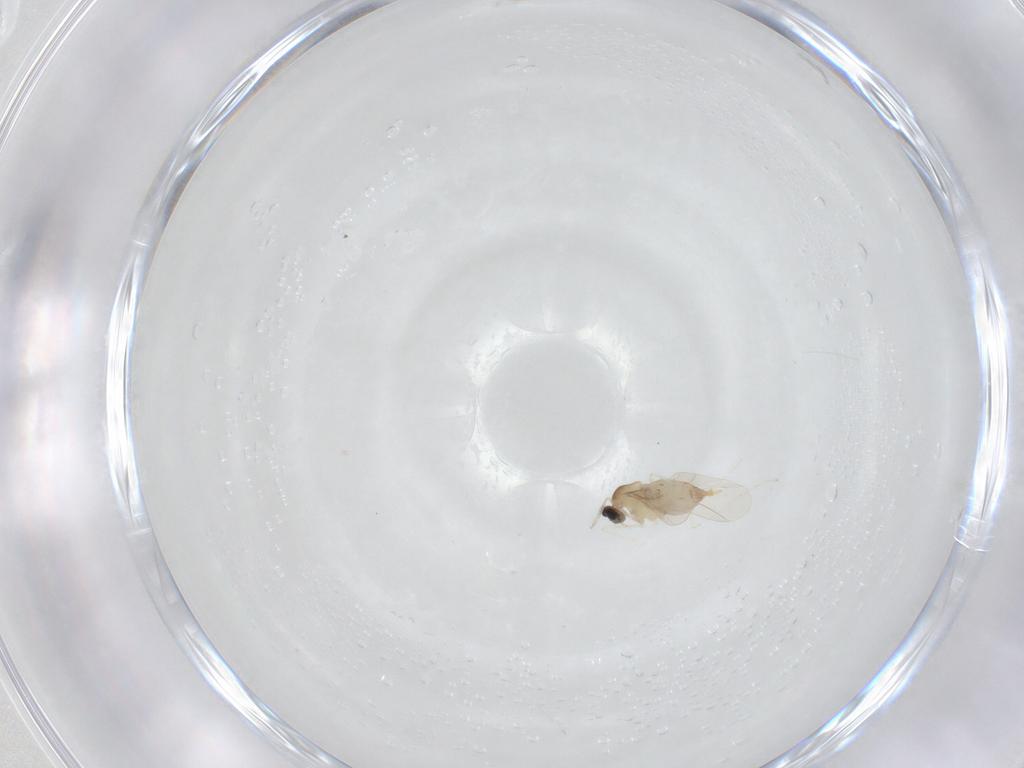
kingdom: Animalia
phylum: Arthropoda
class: Insecta
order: Diptera
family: Cecidomyiidae
